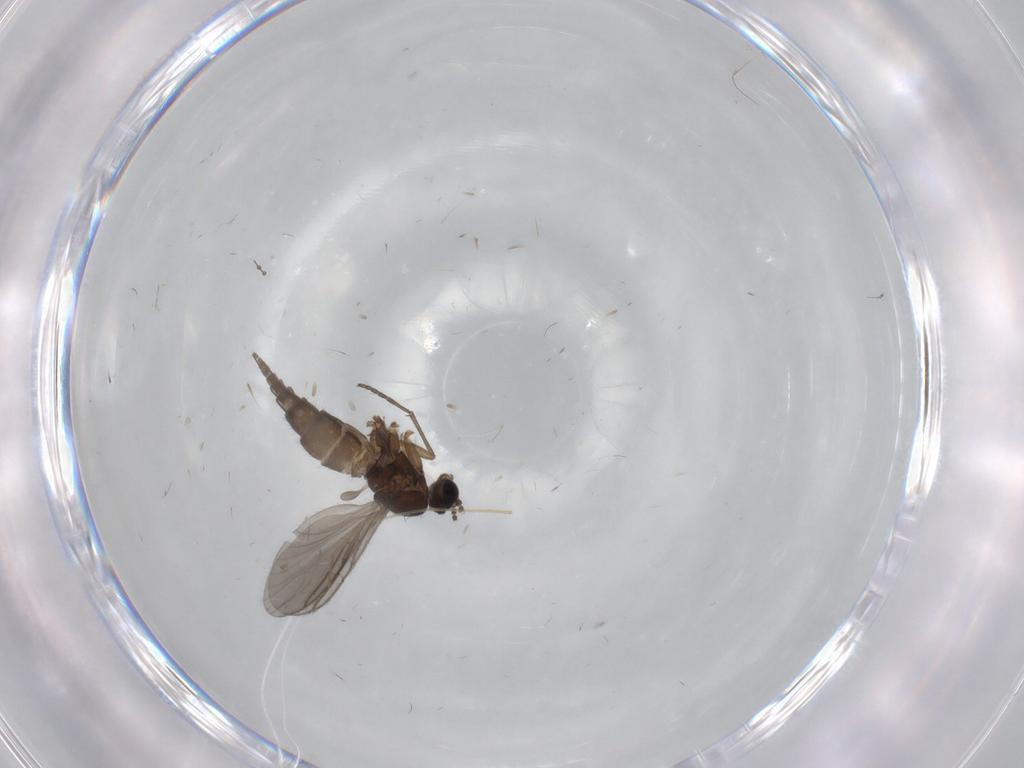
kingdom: Animalia
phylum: Arthropoda
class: Insecta
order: Diptera
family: Sciaridae
